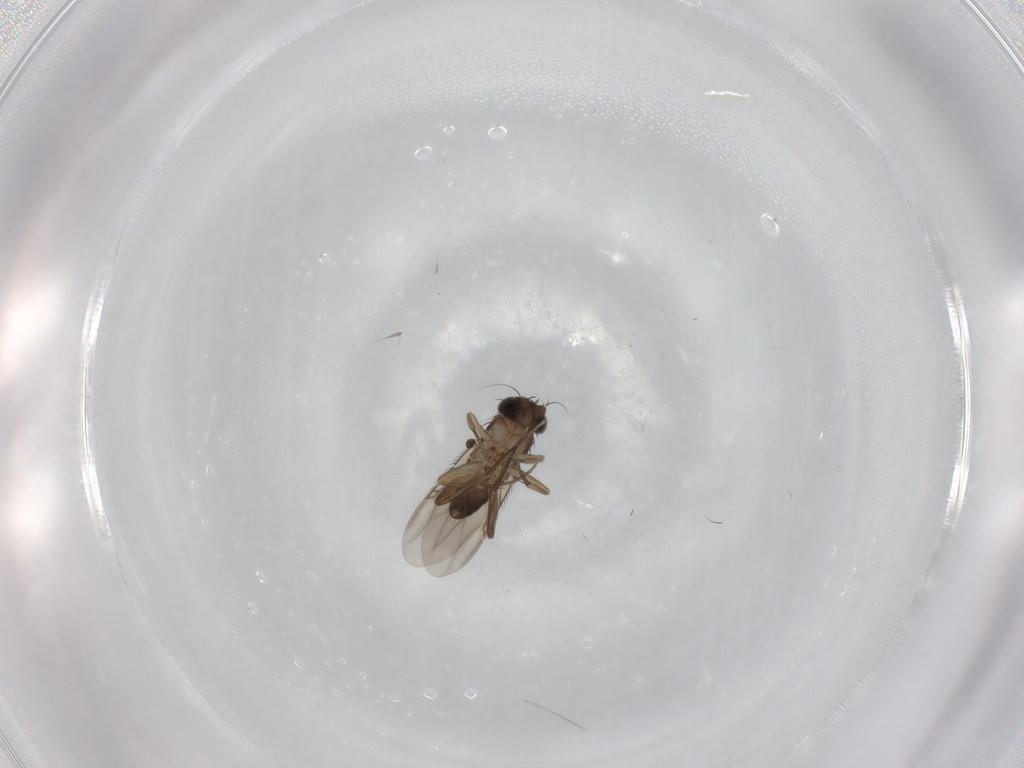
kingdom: Animalia
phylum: Arthropoda
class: Insecta
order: Diptera
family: Phoridae
